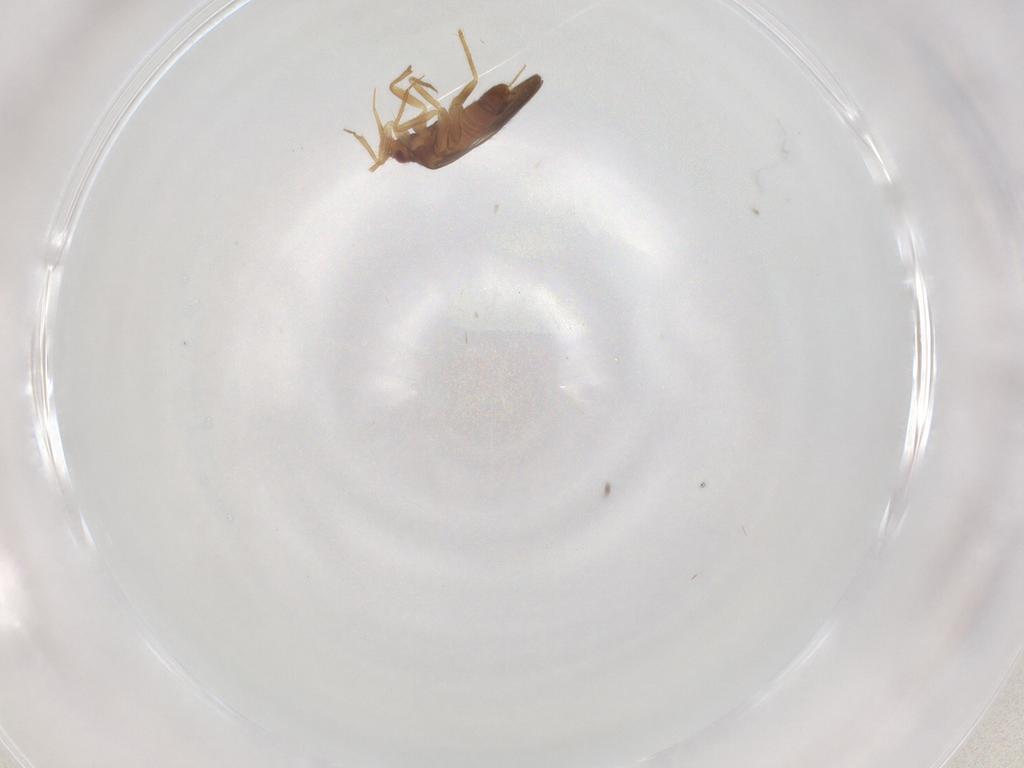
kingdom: Animalia
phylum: Arthropoda
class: Insecta
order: Hemiptera
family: Ceratocombidae
